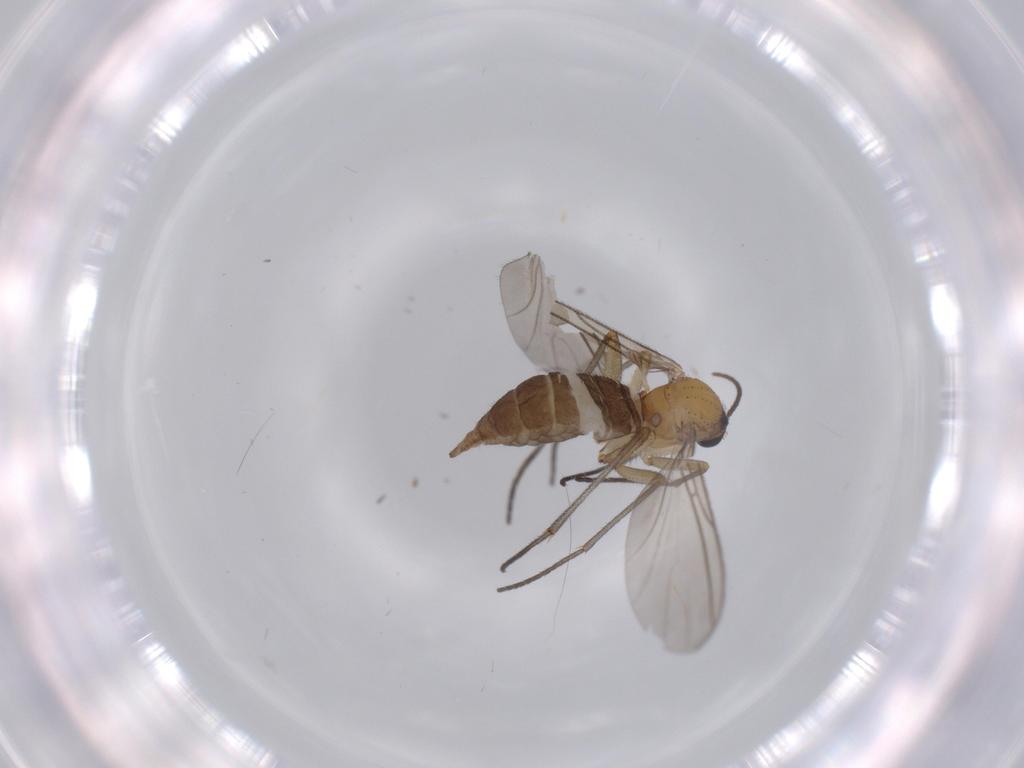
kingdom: Animalia
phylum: Arthropoda
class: Insecta
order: Diptera
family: Sciaridae
